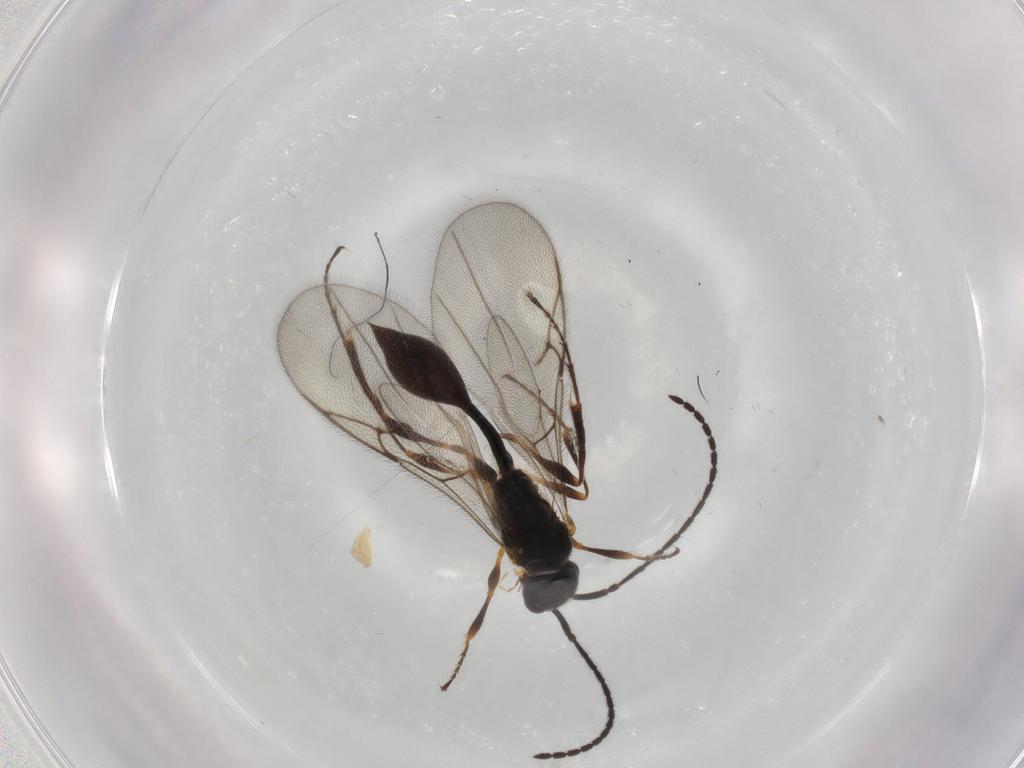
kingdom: Animalia
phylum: Arthropoda
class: Insecta
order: Hymenoptera
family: Diapriidae
